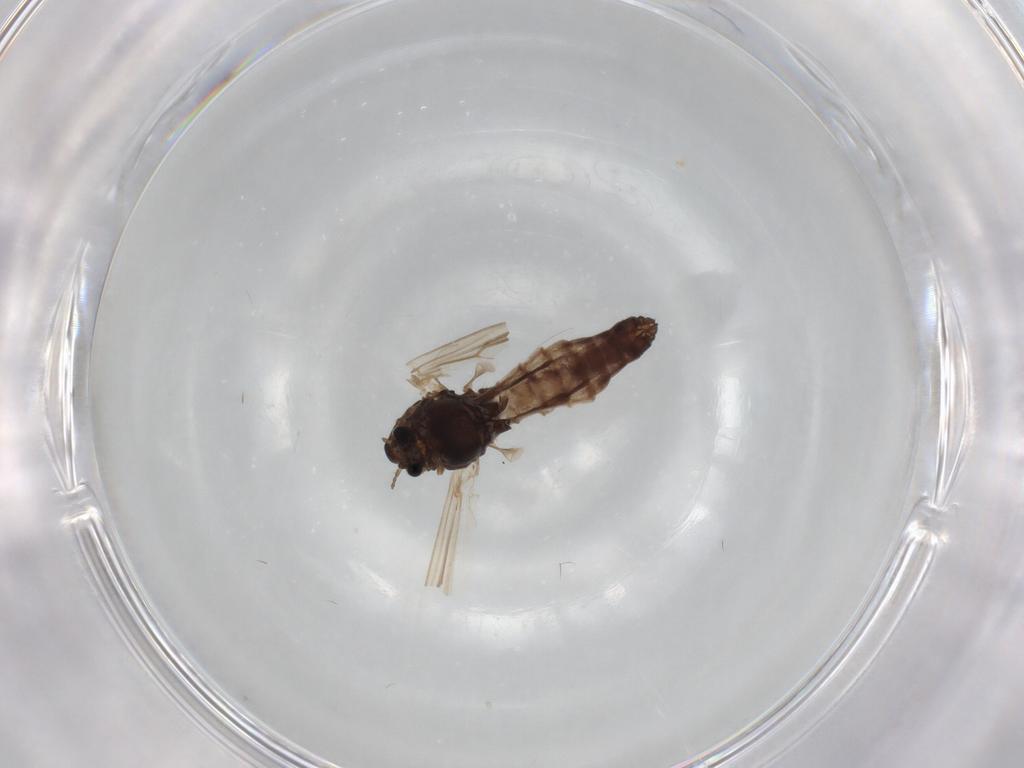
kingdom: Animalia
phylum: Arthropoda
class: Insecta
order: Diptera
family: Chironomidae
